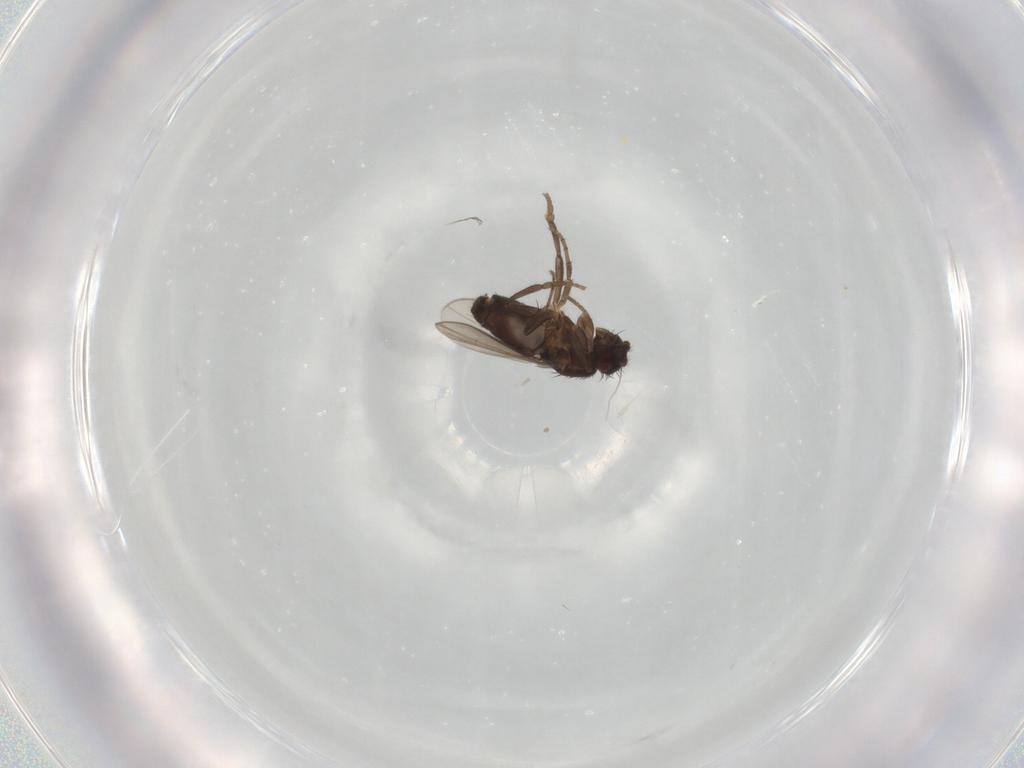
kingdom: Animalia
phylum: Arthropoda
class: Insecta
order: Diptera
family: Sphaeroceridae
